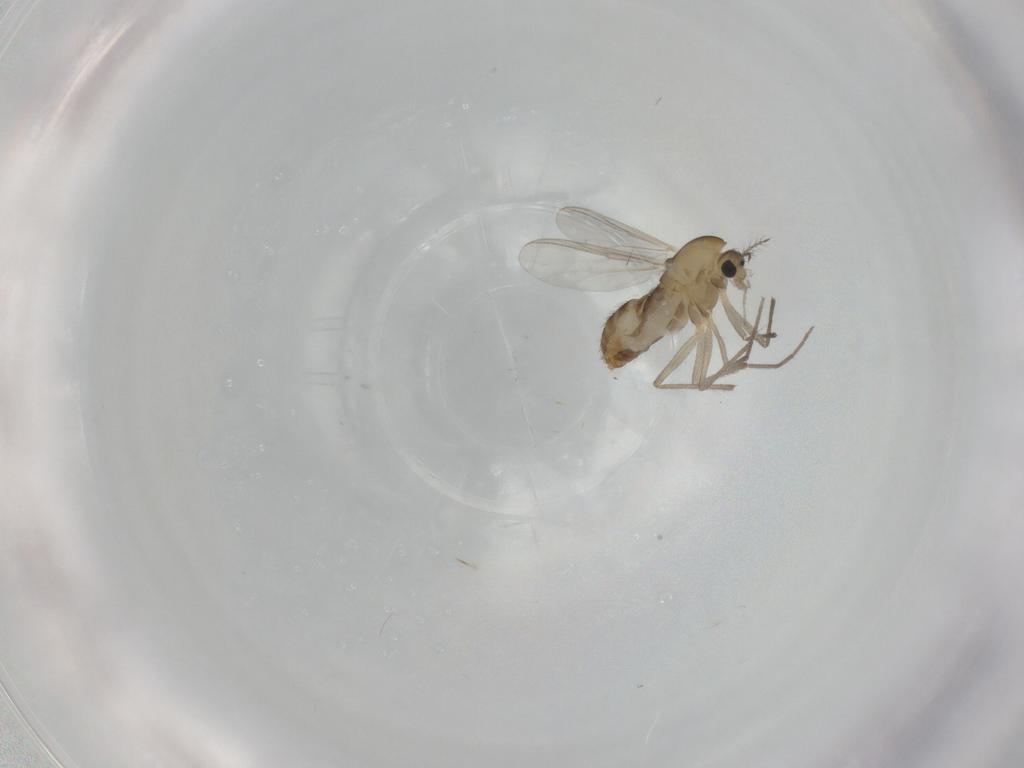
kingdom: Animalia
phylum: Arthropoda
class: Insecta
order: Diptera
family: Chironomidae
